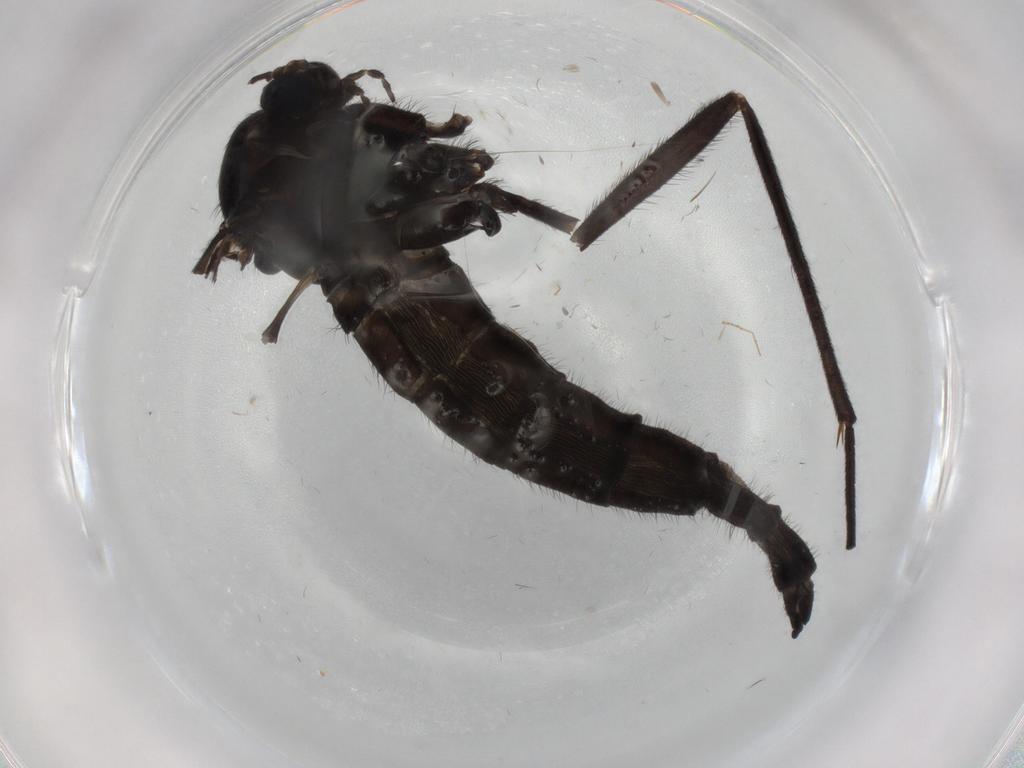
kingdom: Animalia
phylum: Arthropoda
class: Insecta
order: Diptera
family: Sciaridae
